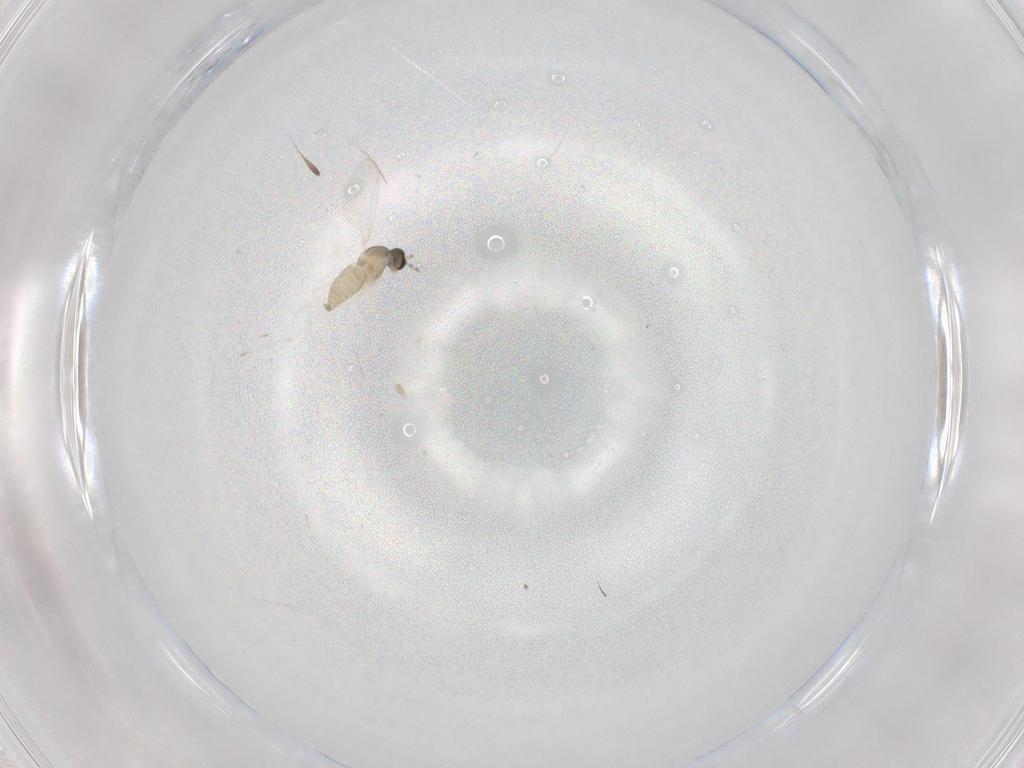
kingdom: Animalia
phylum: Arthropoda
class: Insecta
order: Diptera
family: Cecidomyiidae
